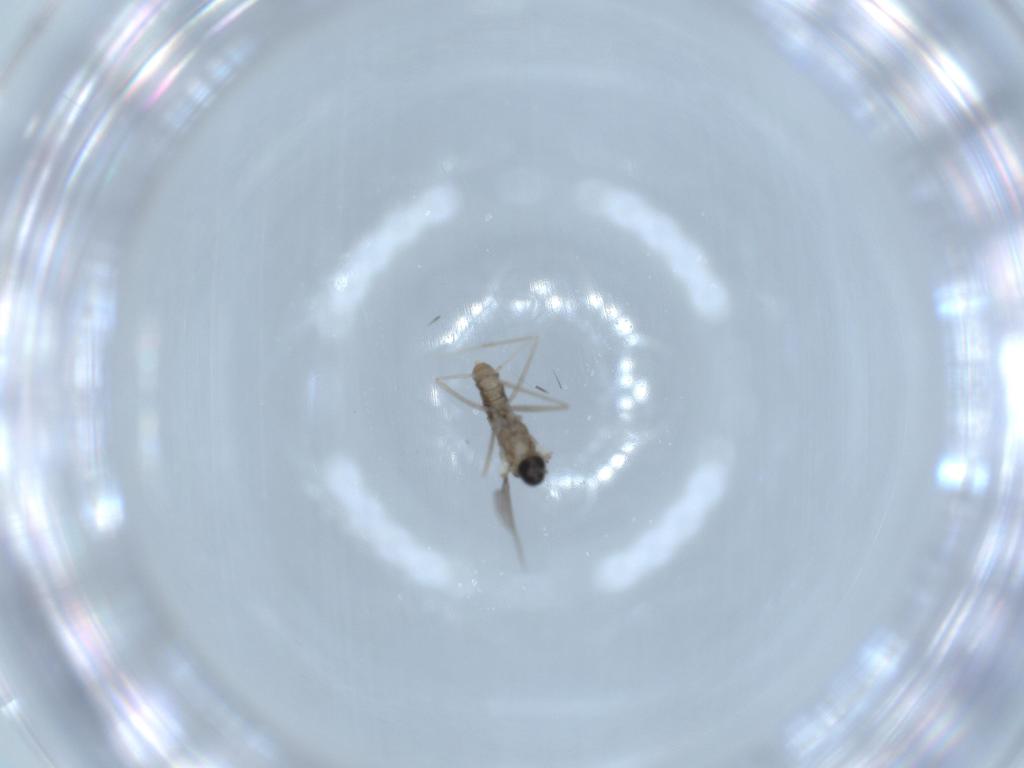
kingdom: Animalia
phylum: Arthropoda
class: Insecta
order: Diptera
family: Cecidomyiidae
